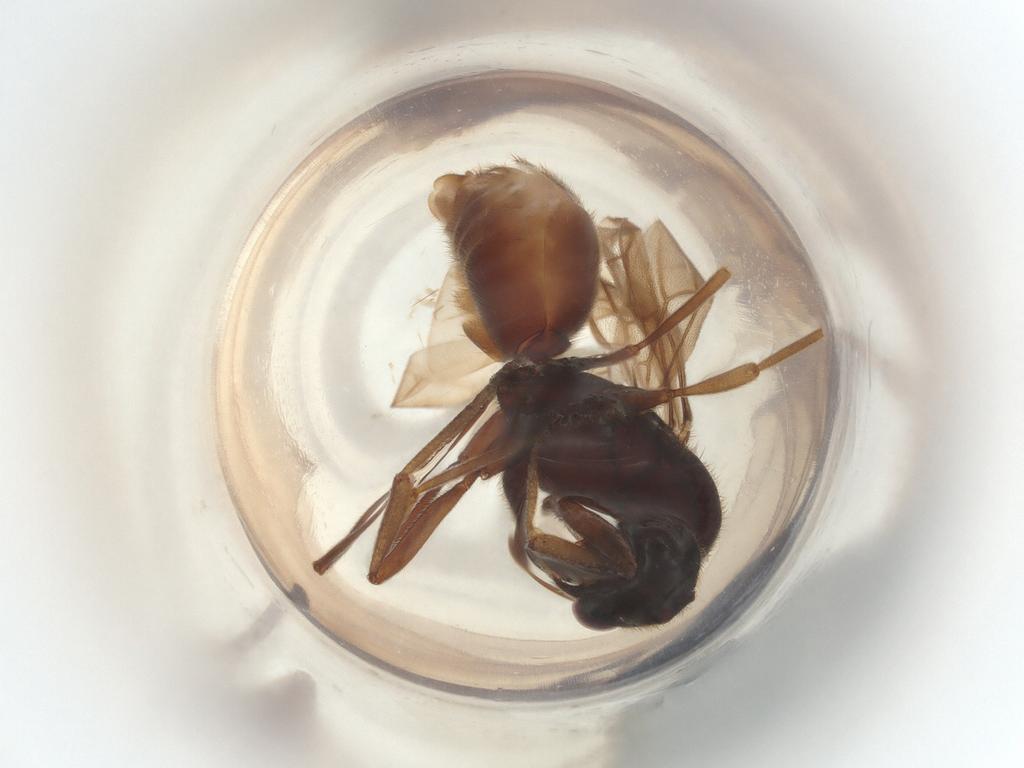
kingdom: Animalia
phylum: Arthropoda
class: Insecta
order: Hymenoptera
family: Formicidae
